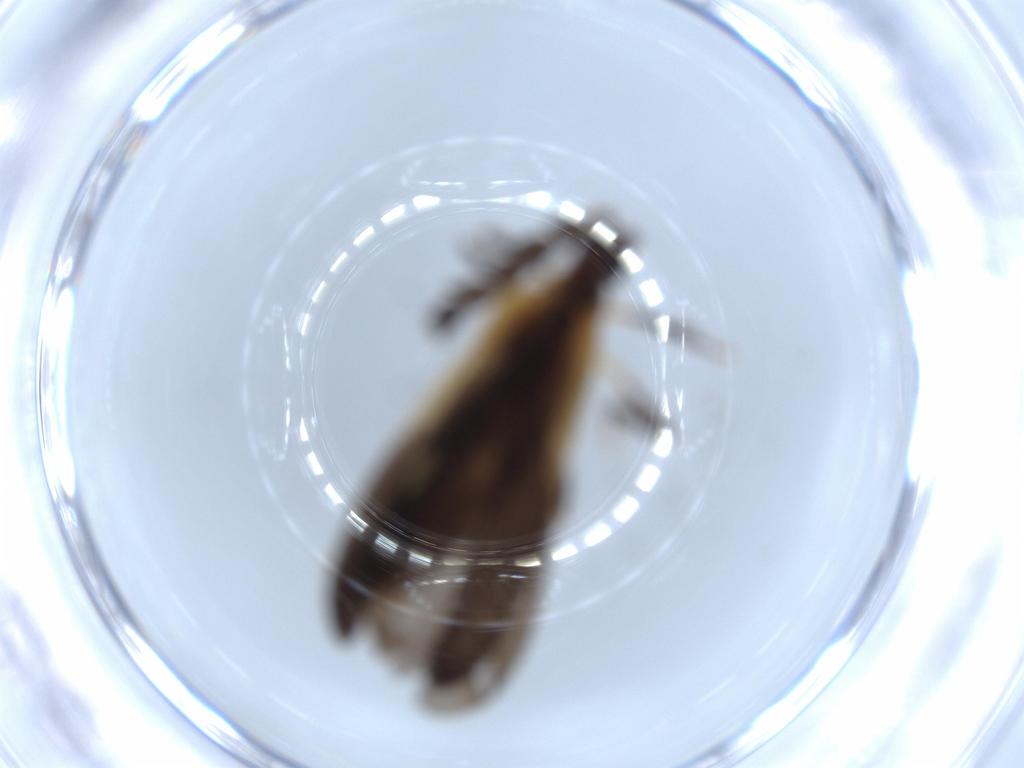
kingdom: Animalia
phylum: Arthropoda
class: Insecta
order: Coleoptera
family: Lycidae
